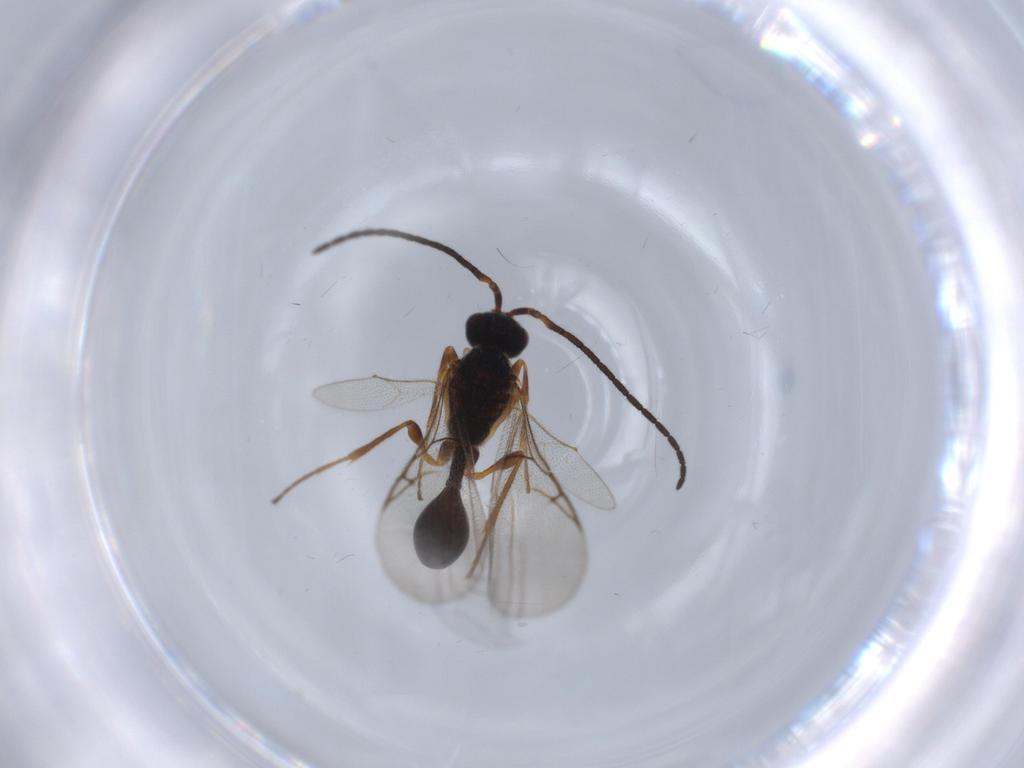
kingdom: Animalia
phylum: Arthropoda
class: Insecta
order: Hymenoptera
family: Diapriidae
